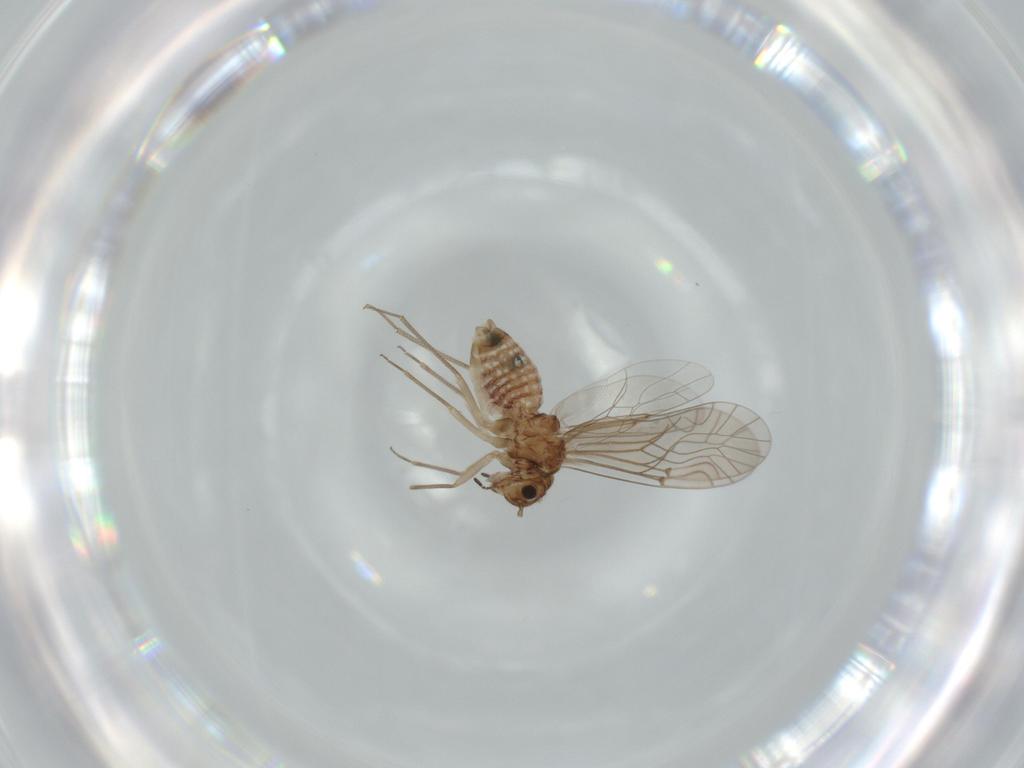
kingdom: Animalia
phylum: Arthropoda
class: Insecta
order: Psocodea
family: Lachesillidae
